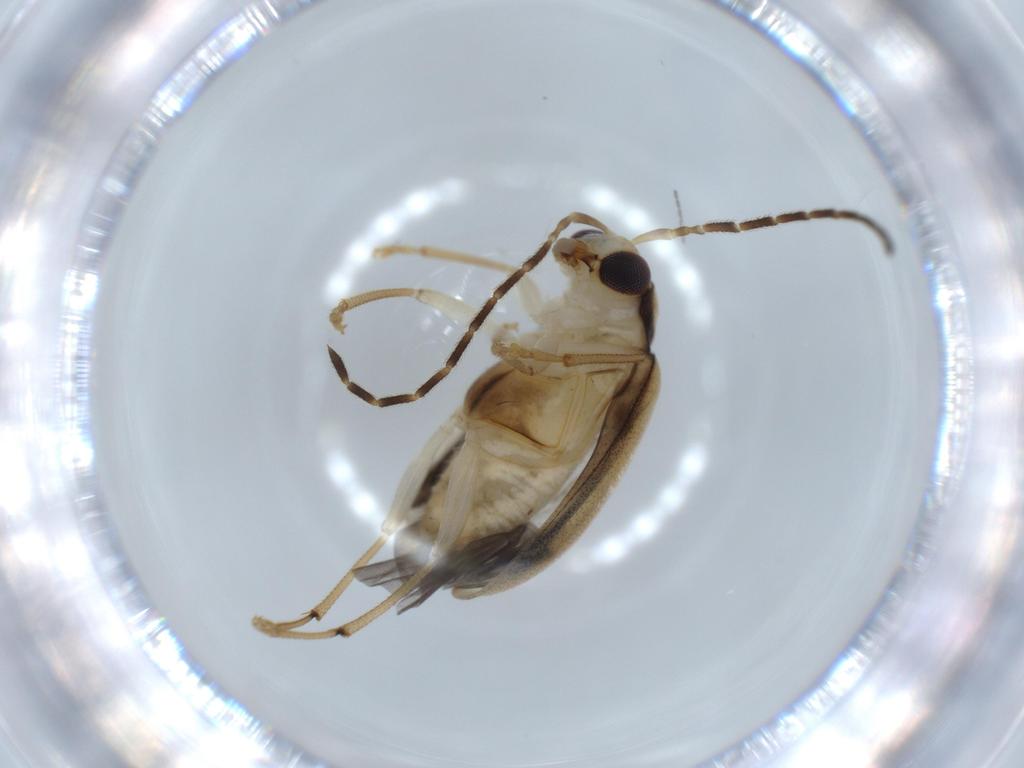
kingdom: Animalia
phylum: Arthropoda
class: Insecta
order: Coleoptera
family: Chrysomelidae
